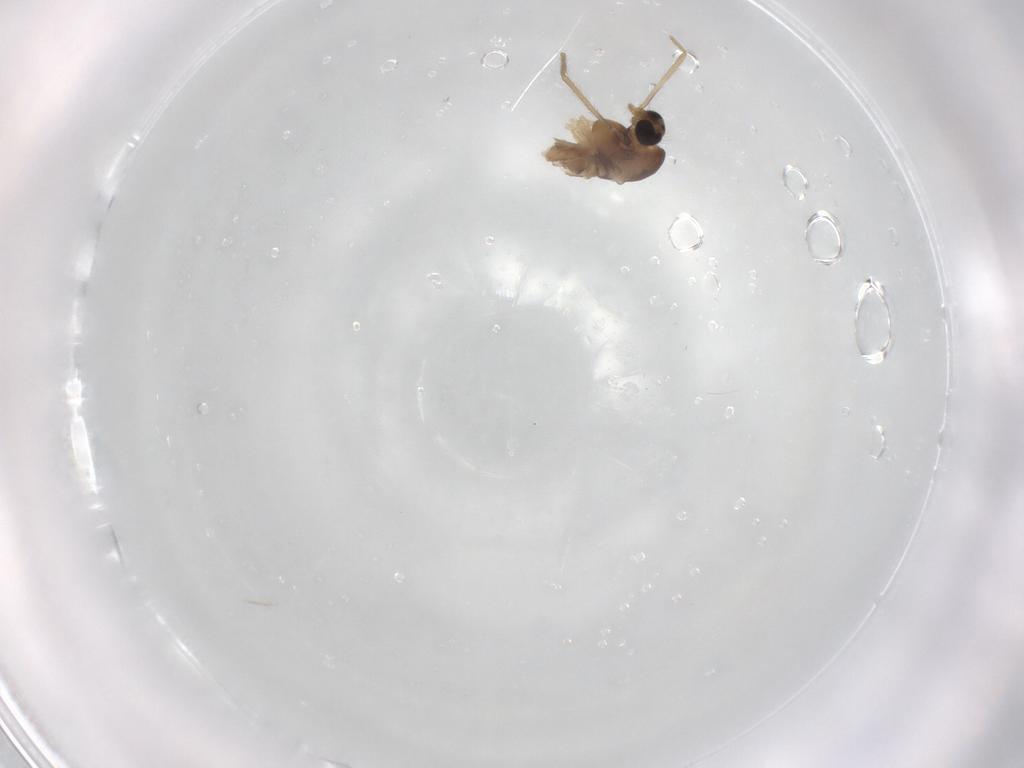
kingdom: Animalia
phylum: Arthropoda
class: Insecta
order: Diptera
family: Chironomidae
